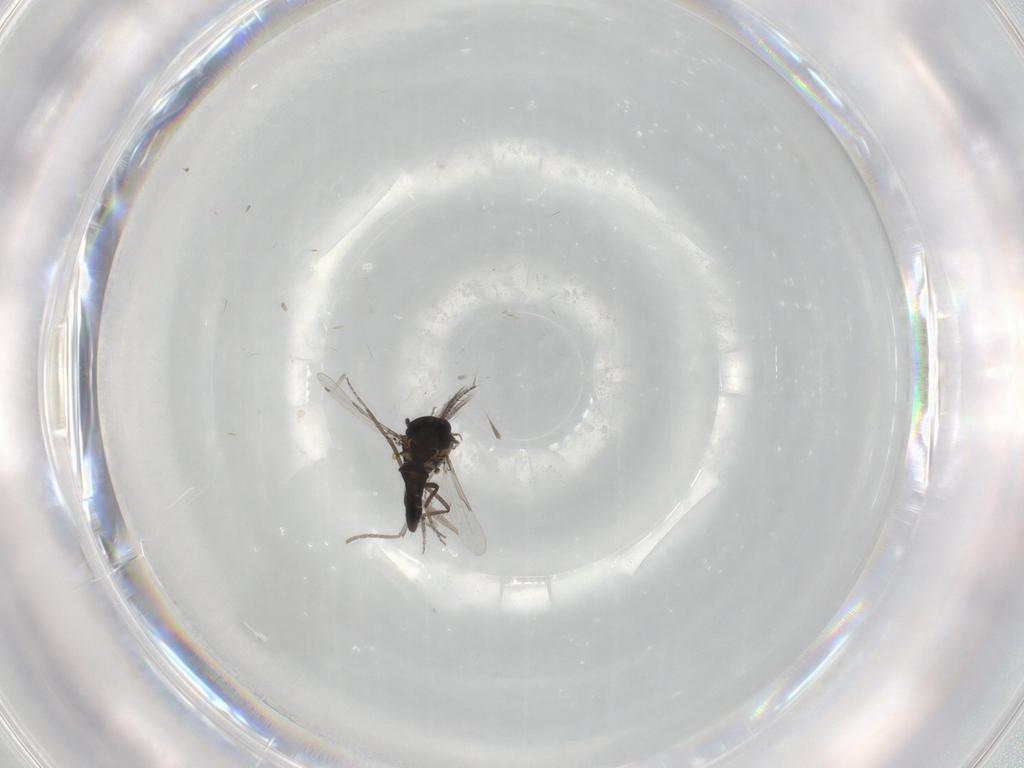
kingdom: Animalia
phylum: Arthropoda
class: Insecta
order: Diptera
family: Ceratopogonidae
